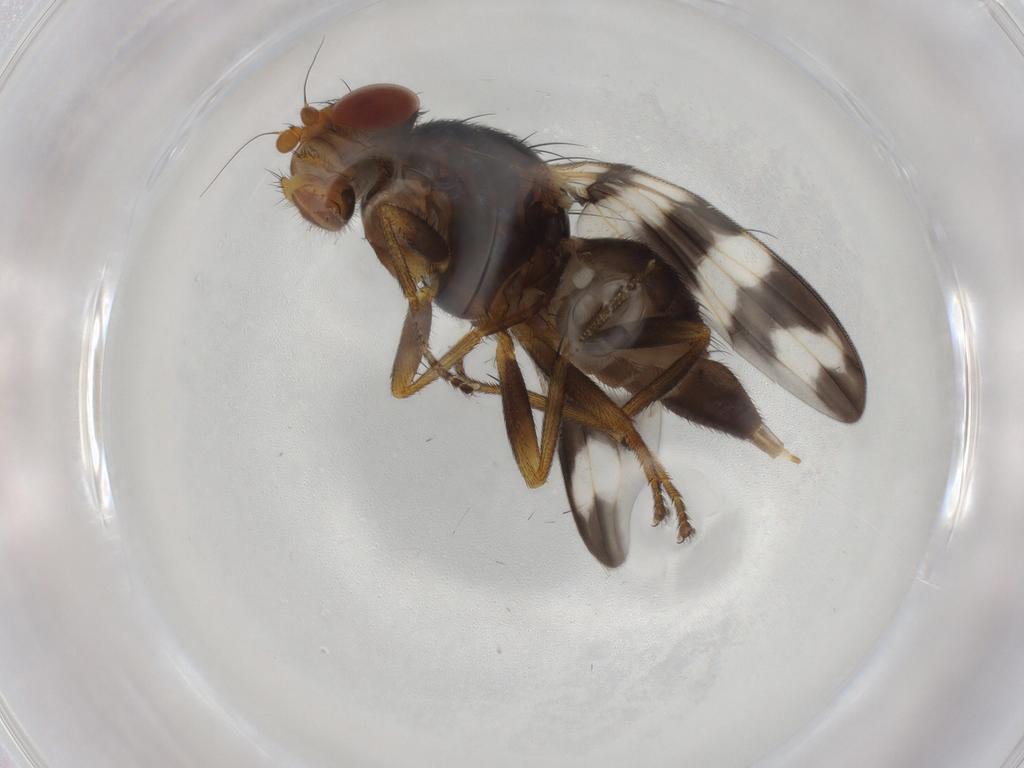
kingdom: Animalia
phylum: Arthropoda
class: Insecta
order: Diptera
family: Ulidiidae
